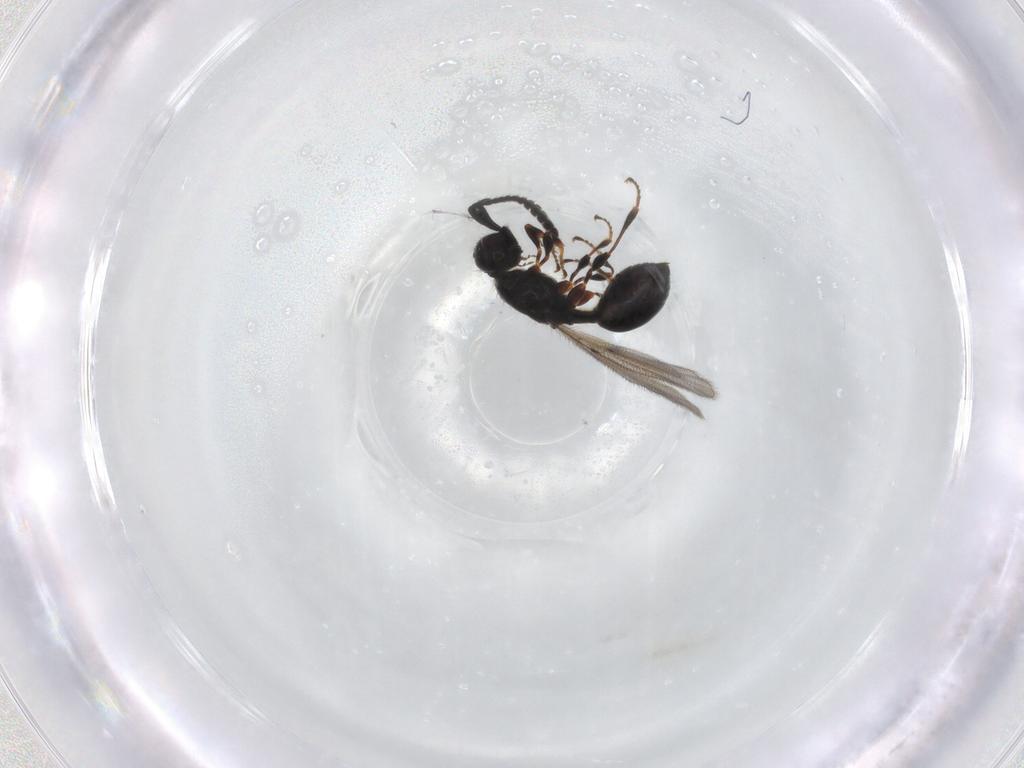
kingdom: Animalia
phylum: Arthropoda
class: Insecta
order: Hymenoptera
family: Diapriidae
